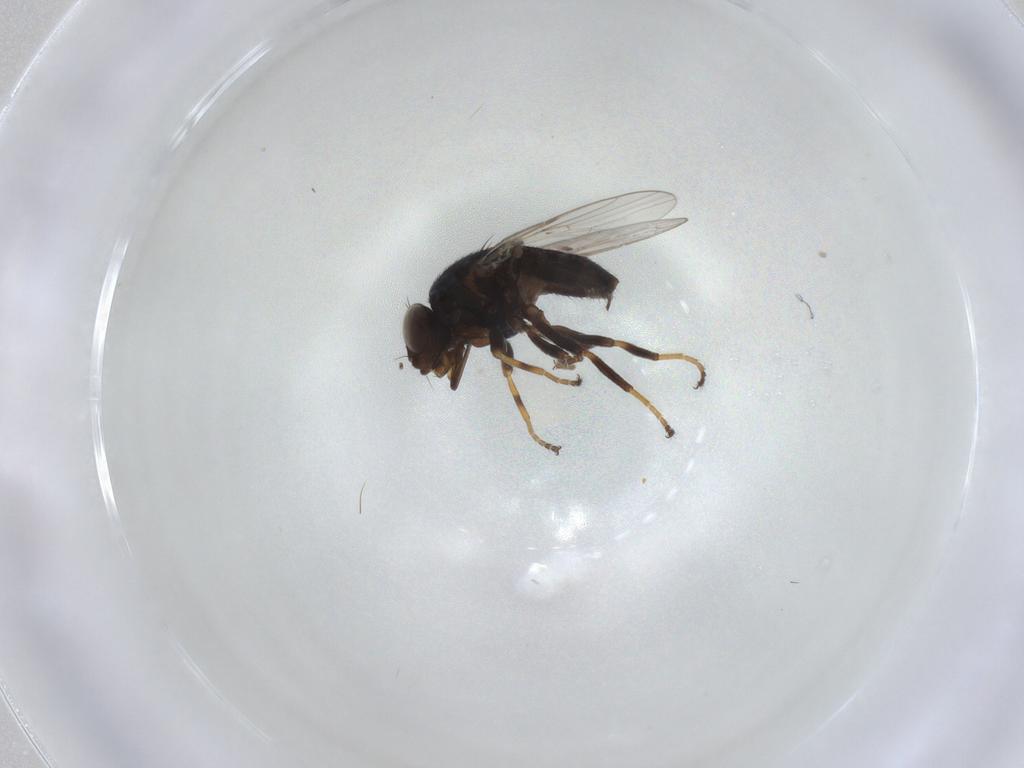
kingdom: Animalia
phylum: Arthropoda
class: Insecta
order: Diptera
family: Chloropidae
